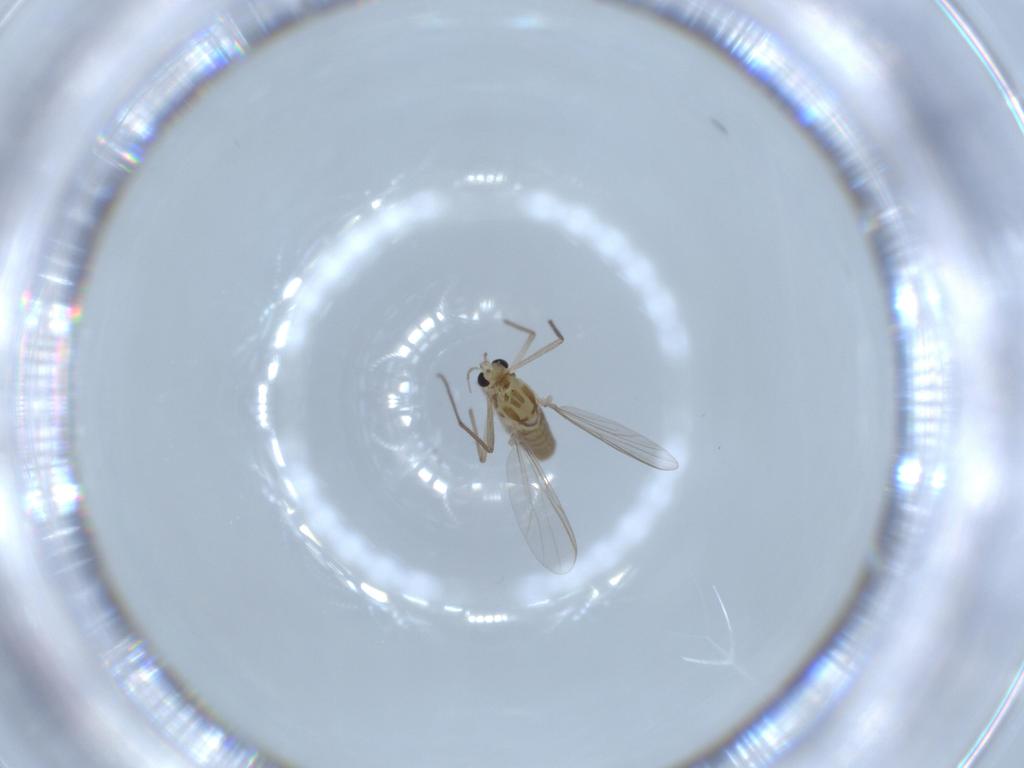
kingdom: Animalia
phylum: Arthropoda
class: Insecta
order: Diptera
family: Chironomidae
